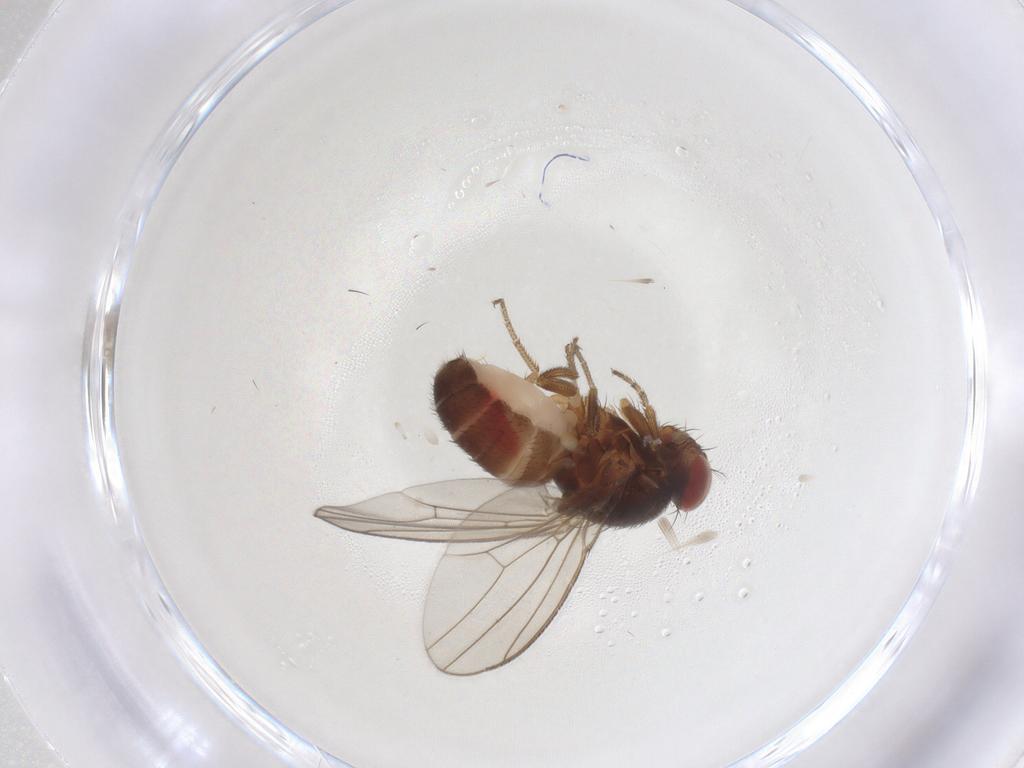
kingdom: Animalia
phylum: Arthropoda
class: Insecta
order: Diptera
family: Drosophilidae
